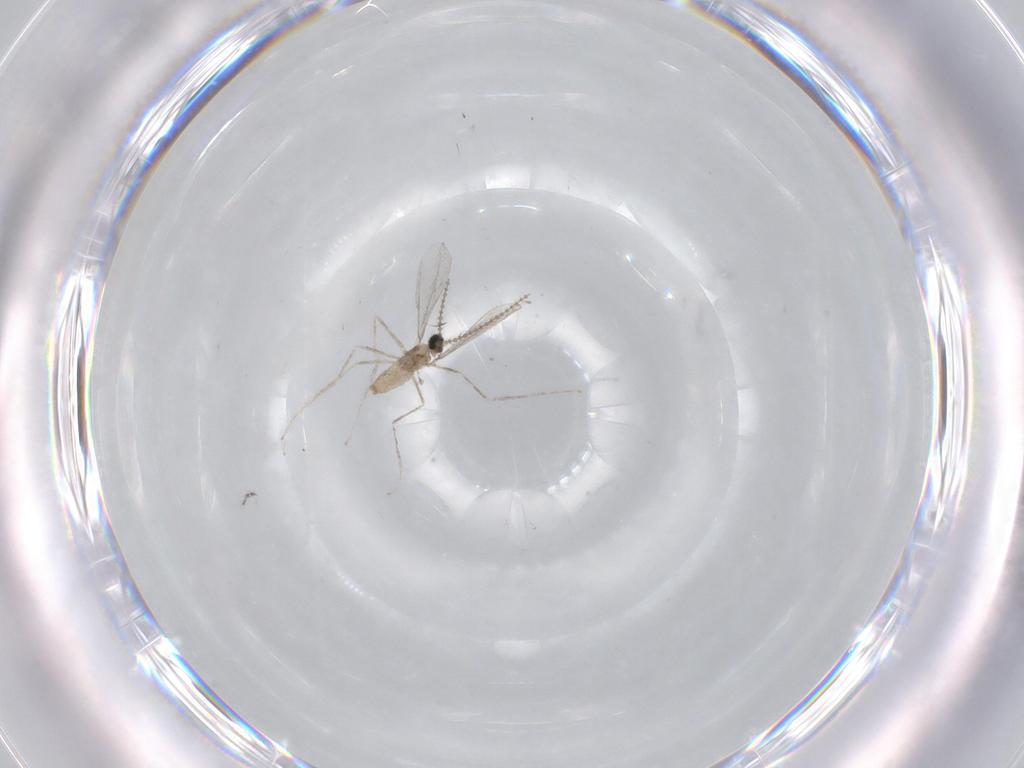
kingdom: Animalia
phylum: Arthropoda
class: Insecta
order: Diptera
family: Cecidomyiidae
